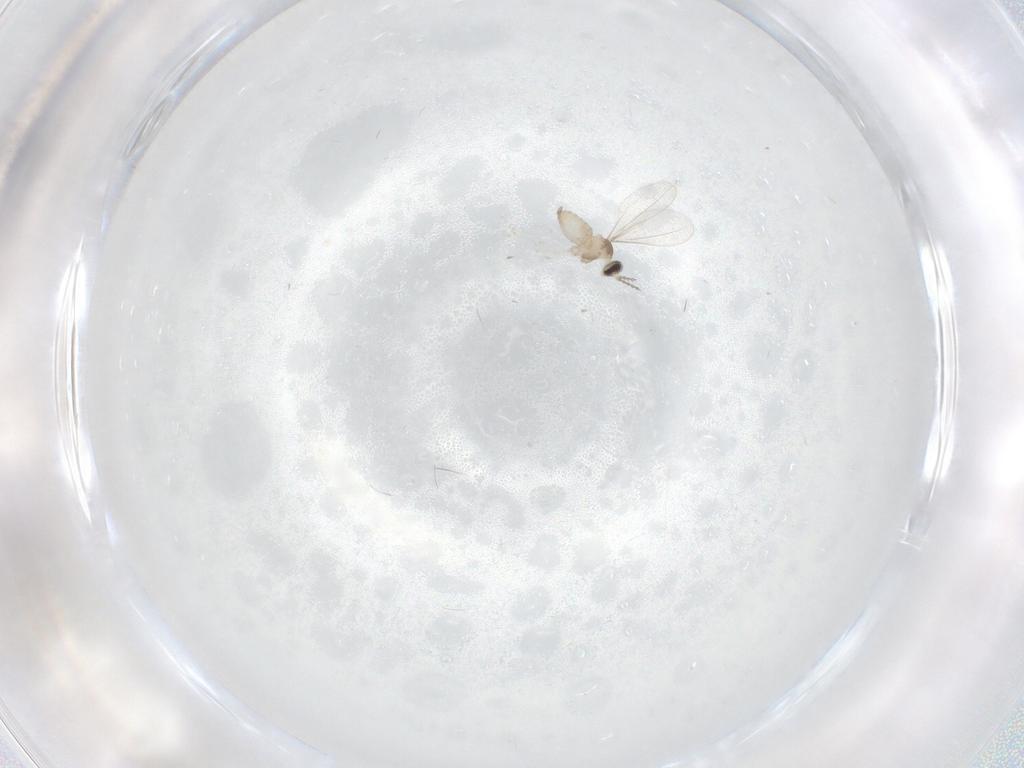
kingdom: Animalia
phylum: Arthropoda
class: Insecta
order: Diptera
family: Cecidomyiidae
